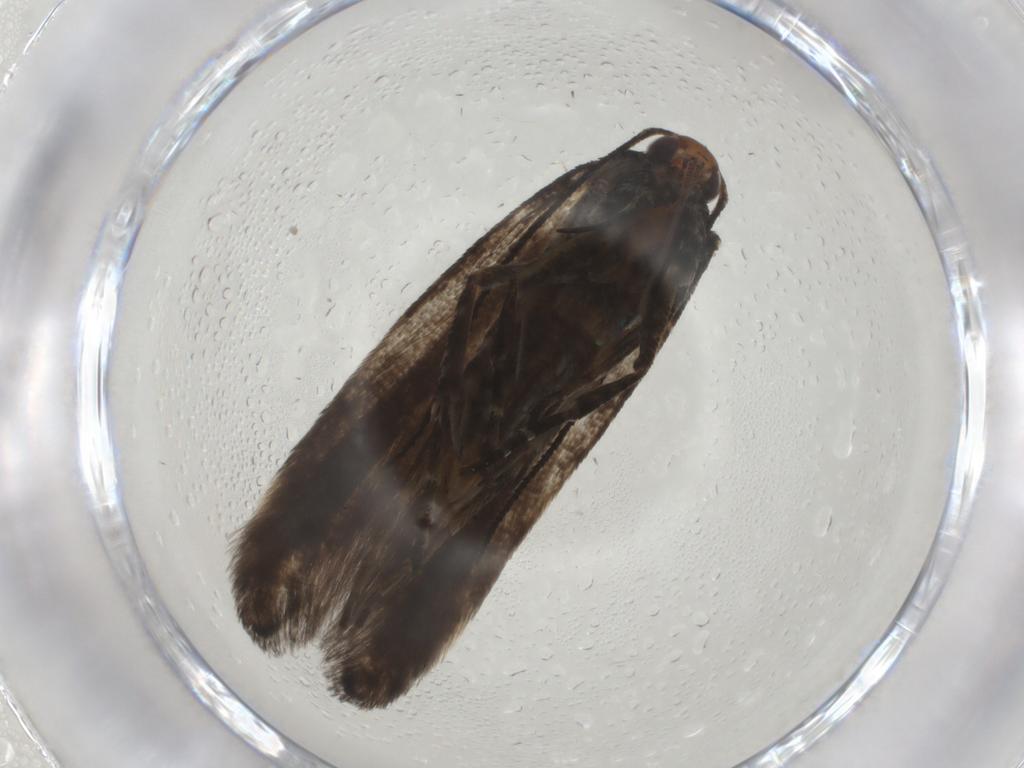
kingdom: Animalia
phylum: Arthropoda
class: Insecta
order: Lepidoptera
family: Gelechiidae
